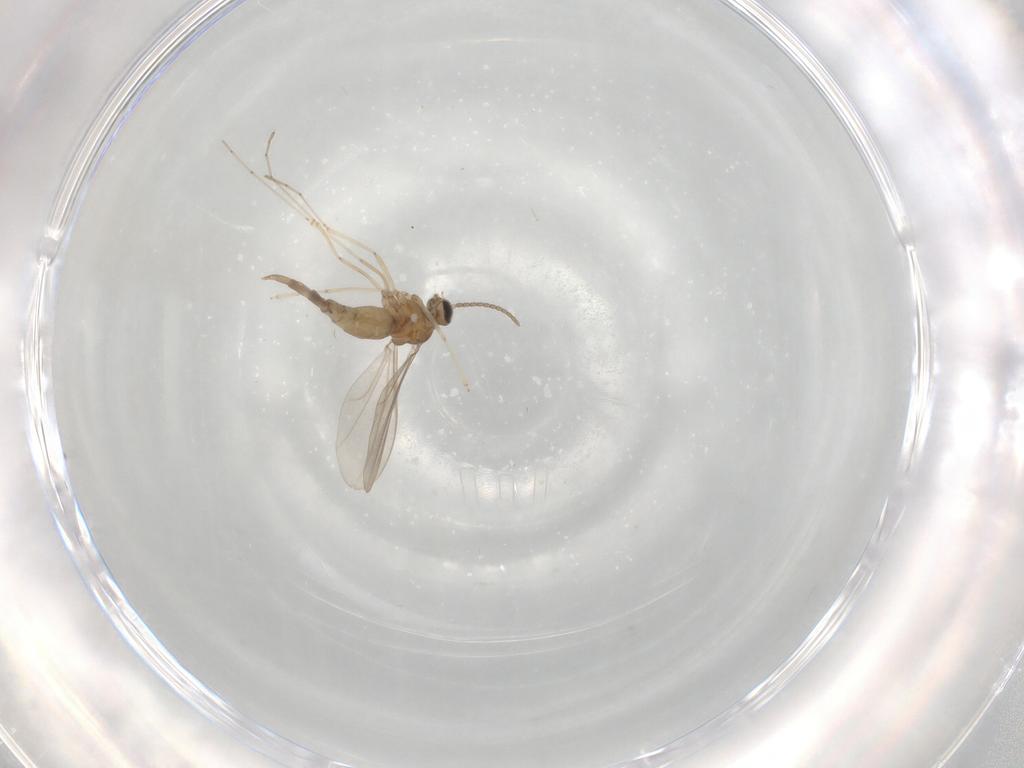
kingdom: Animalia
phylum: Arthropoda
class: Insecta
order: Diptera
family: Cecidomyiidae
